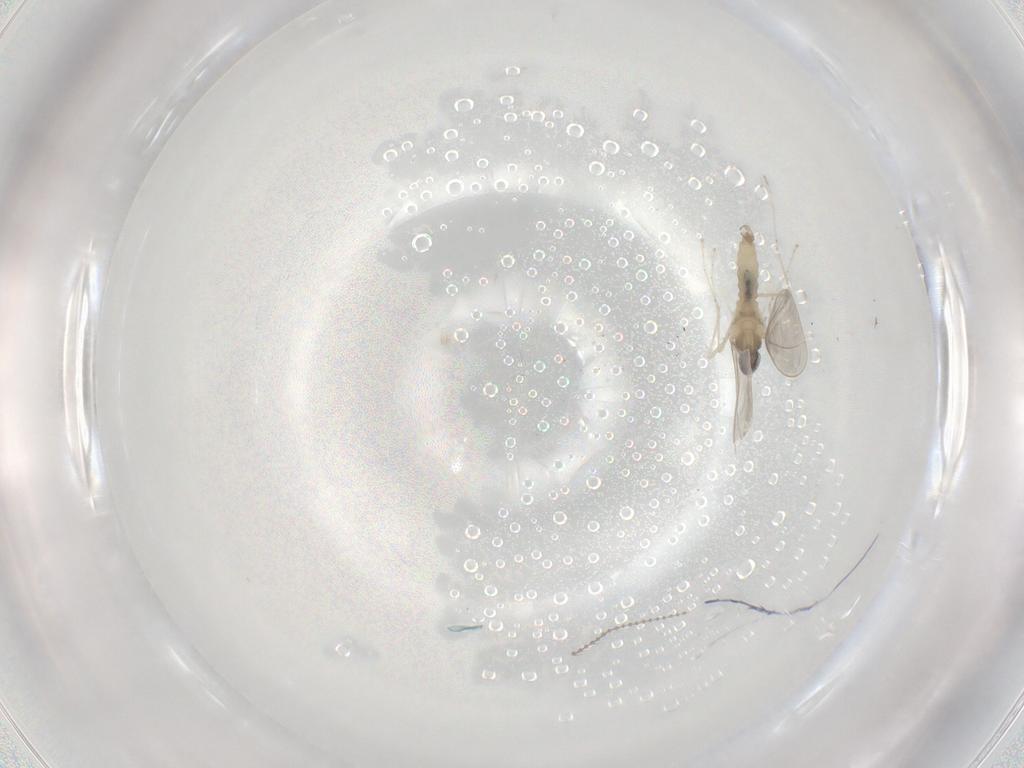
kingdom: Animalia
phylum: Arthropoda
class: Insecta
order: Diptera
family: Cecidomyiidae
